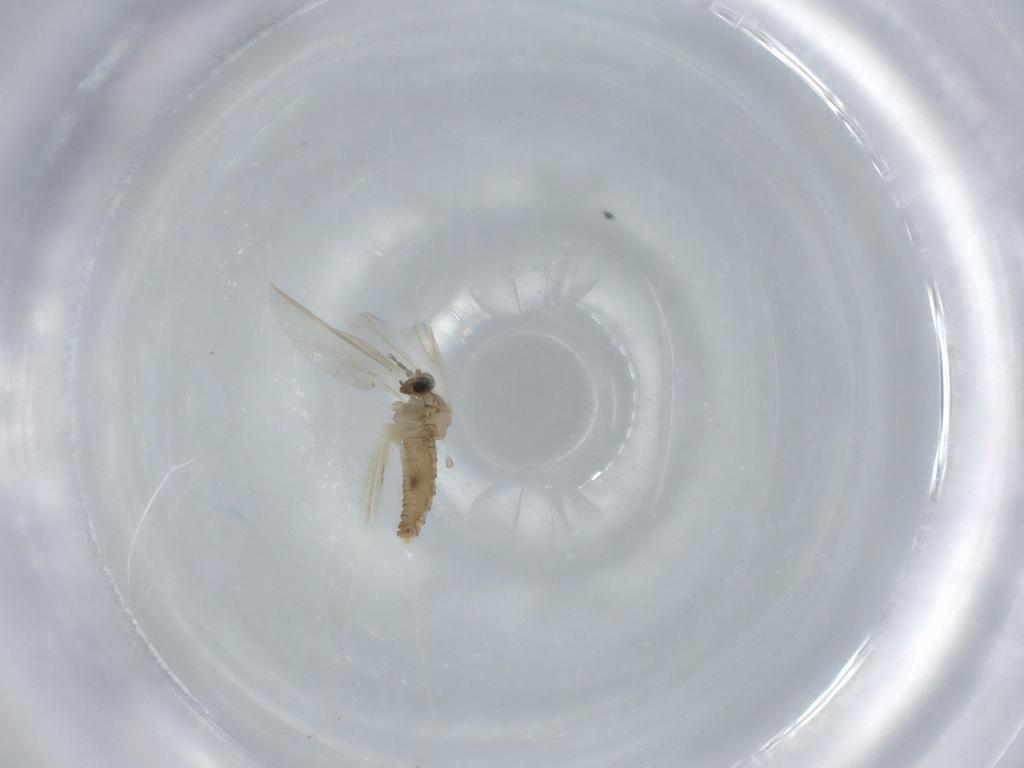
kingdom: Animalia
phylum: Arthropoda
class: Insecta
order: Diptera
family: Cecidomyiidae
